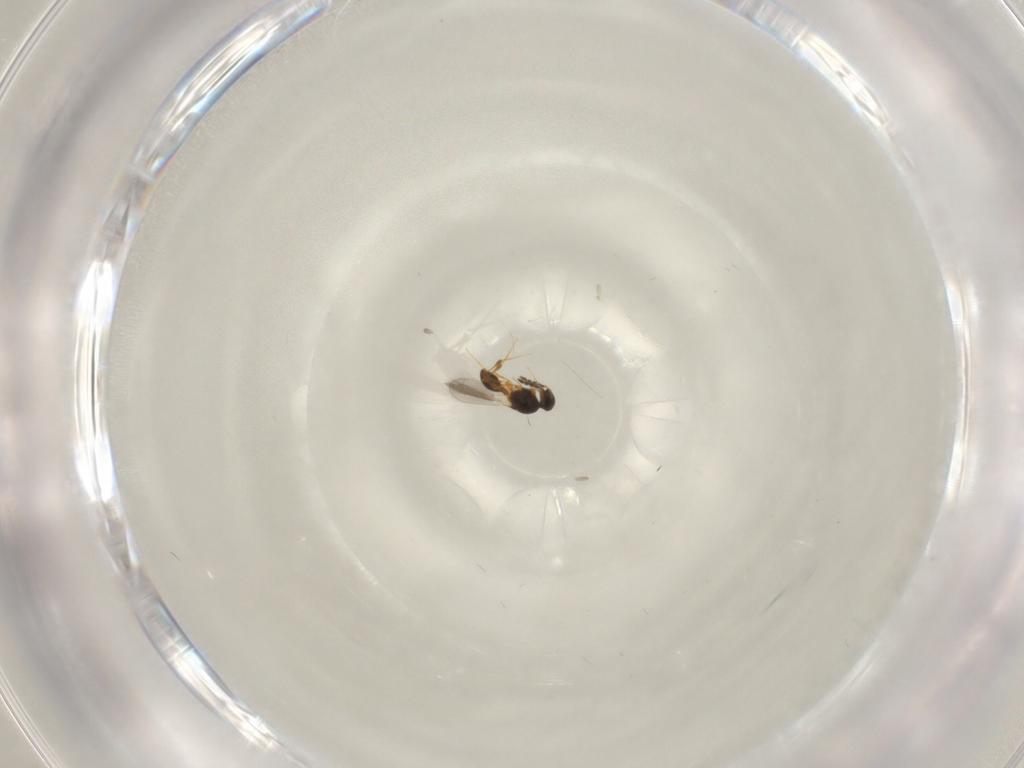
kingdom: Animalia
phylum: Arthropoda
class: Insecta
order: Hymenoptera
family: Platygastridae
